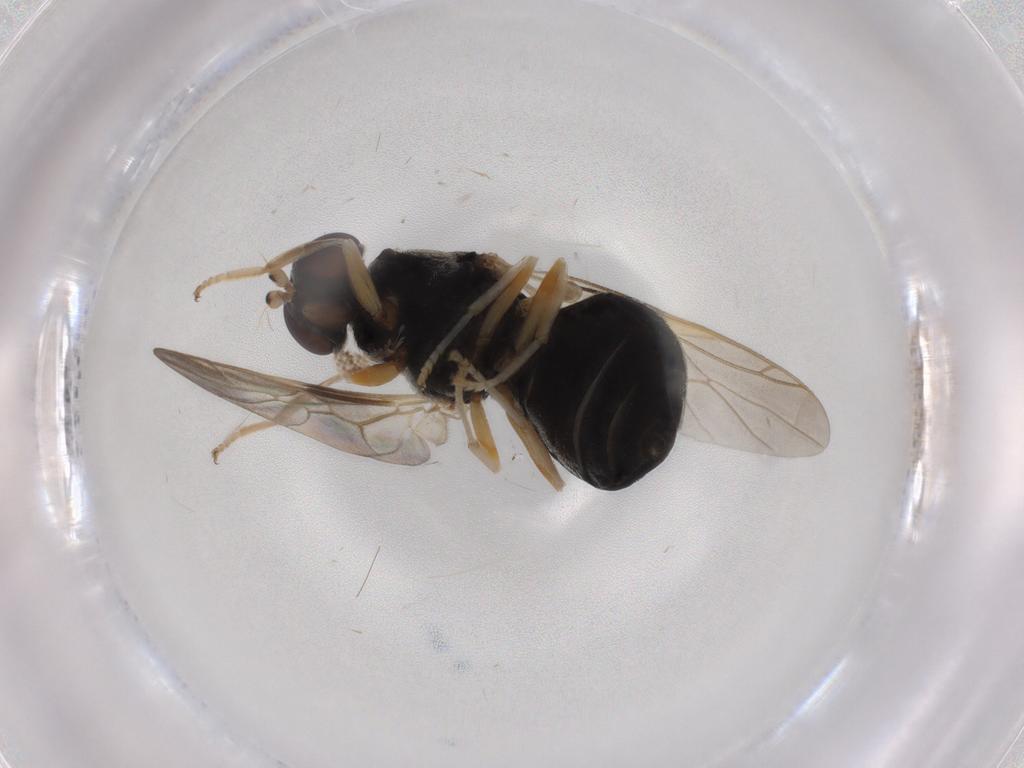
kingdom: Animalia
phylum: Arthropoda
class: Insecta
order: Diptera
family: Stratiomyidae
